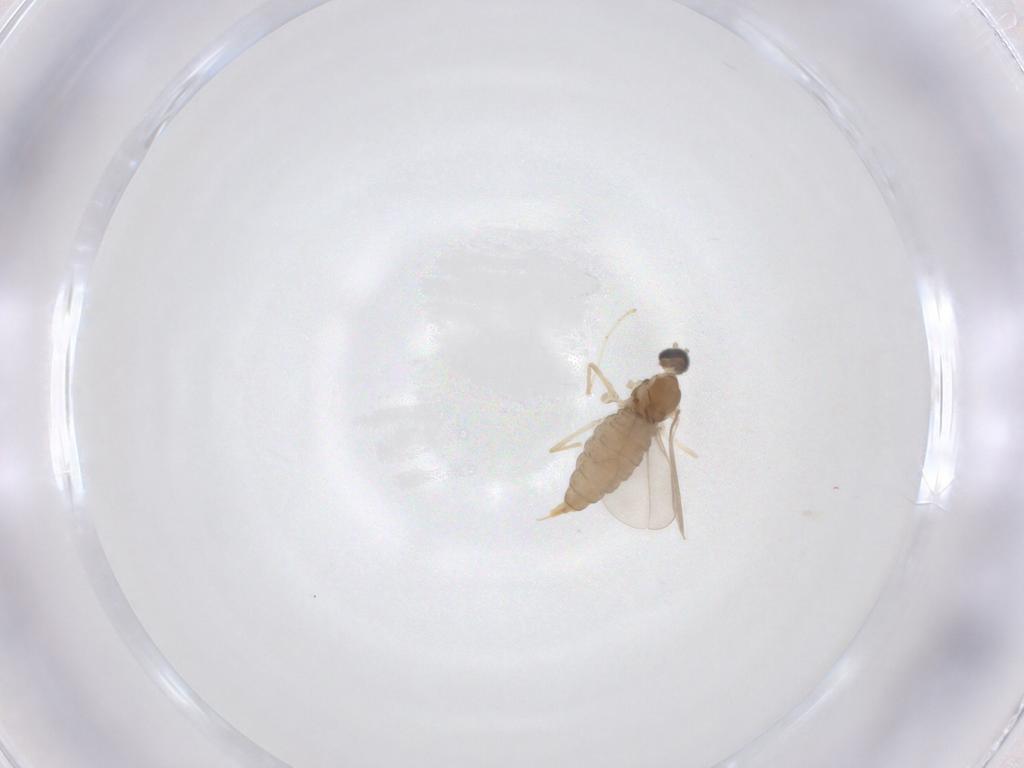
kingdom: Animalia
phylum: Arthropoda
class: Insecta
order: Diptera
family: Cecidomyiidae
